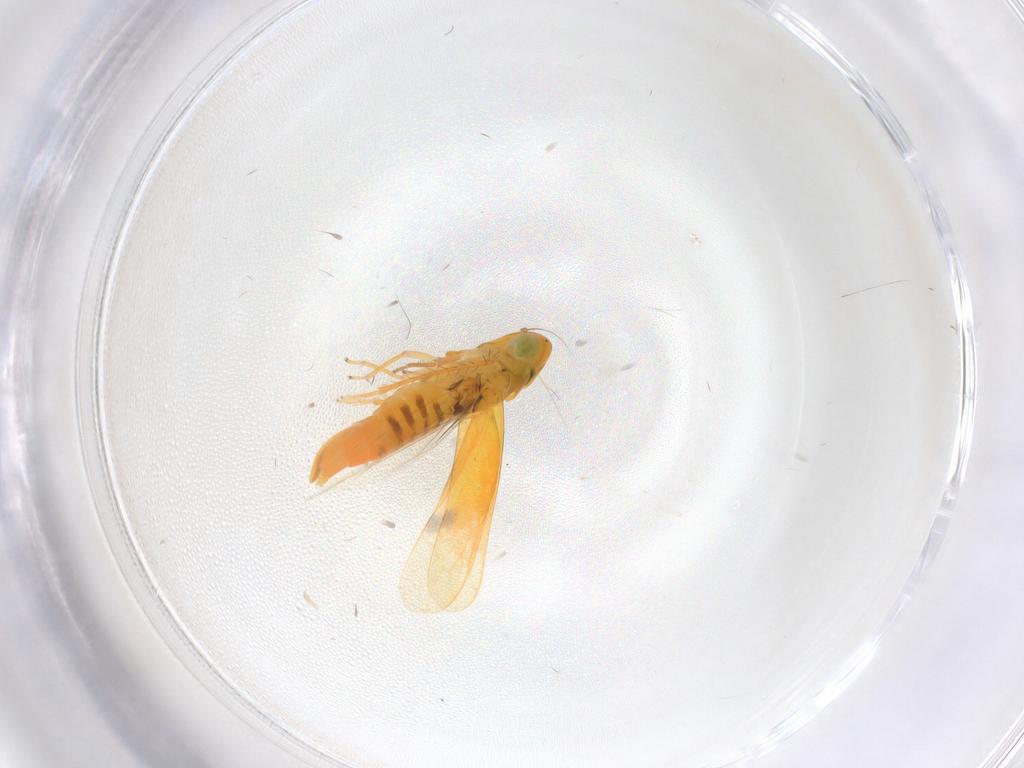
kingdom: Animalia
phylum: Arthropoda
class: Insecta
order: Hemiptera
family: Cicadellidae
